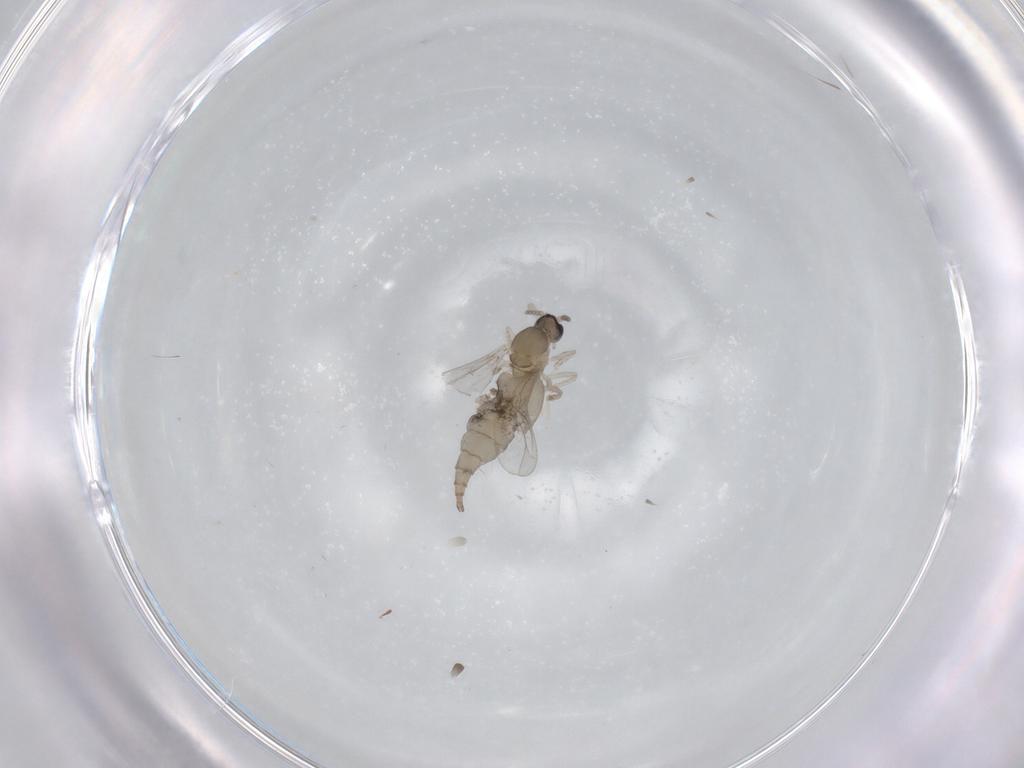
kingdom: Animalia
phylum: Arthropoda
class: Insecta
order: Diptera
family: Cecidomyiidae
